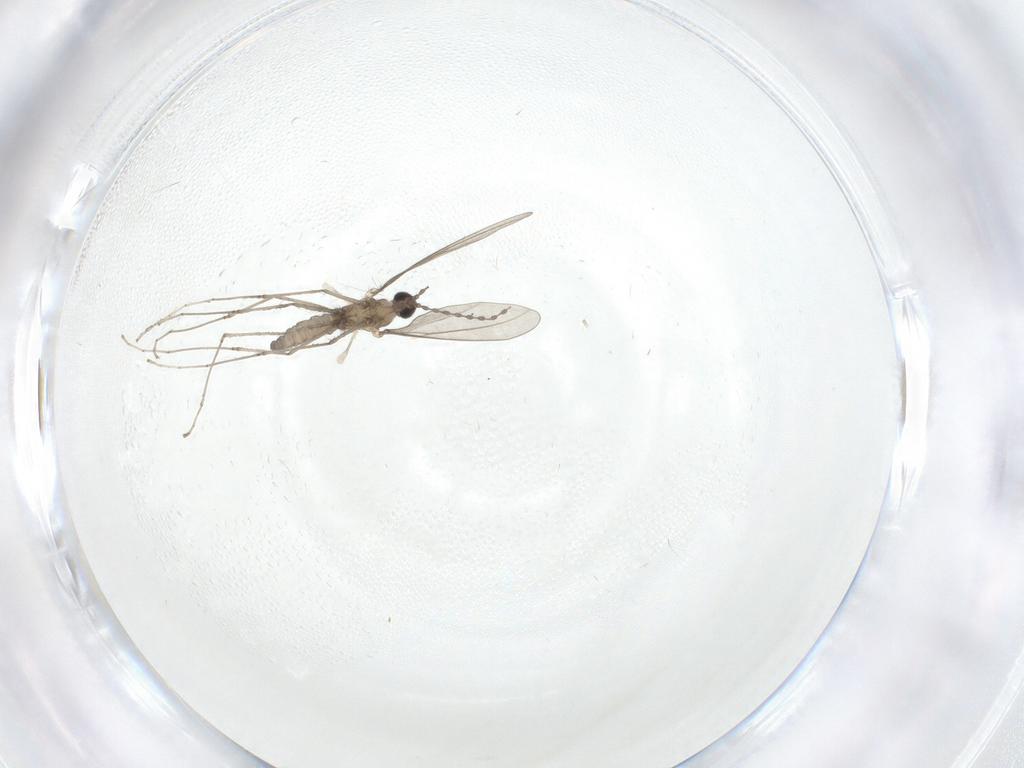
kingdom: Animalia
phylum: Arthropoda
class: Insecta
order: Diptera
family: Cecidomyiidae
